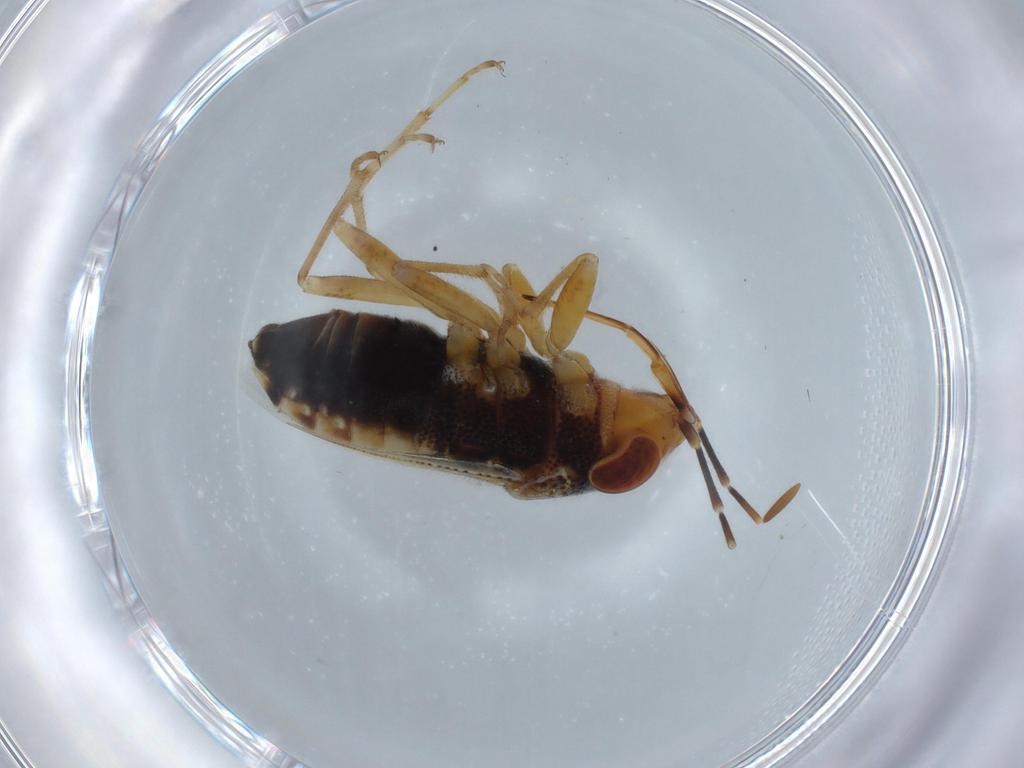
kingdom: Animalia
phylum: Arthropoda
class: Insecta
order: Hemiptera
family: Geocoridae
